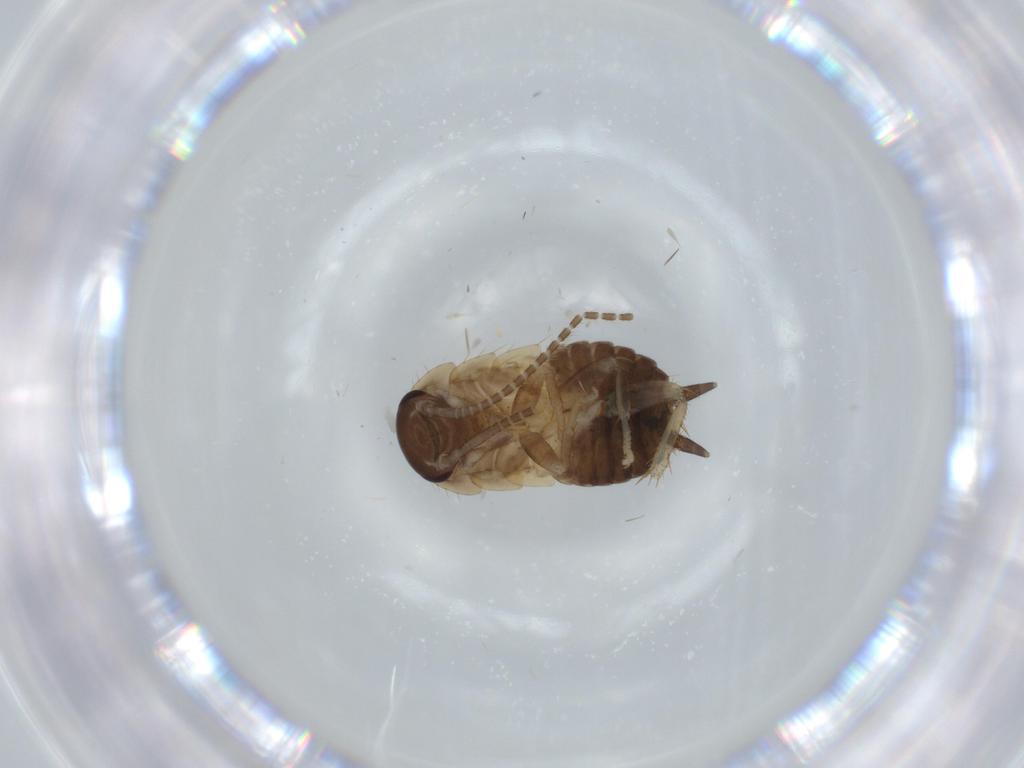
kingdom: Animalia
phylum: Arthropoda
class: Insecta
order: Blattodea
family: Ectobiidae
